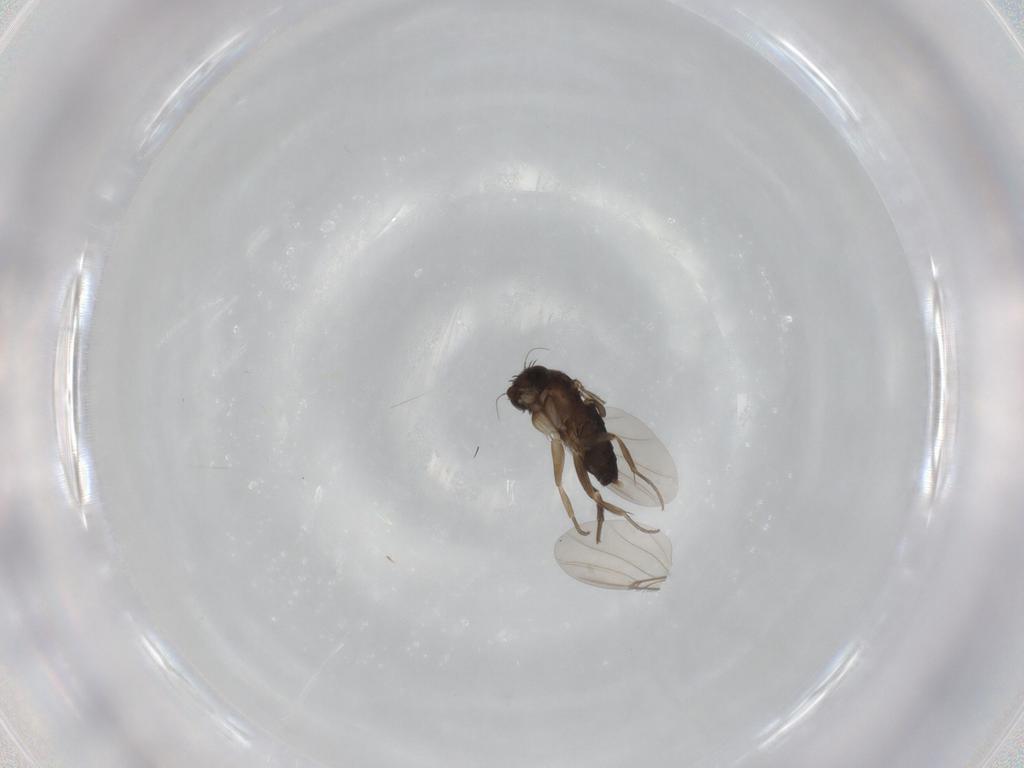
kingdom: Animalia
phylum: Arthropoda
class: Insecta
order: Diptera
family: Phoridae
